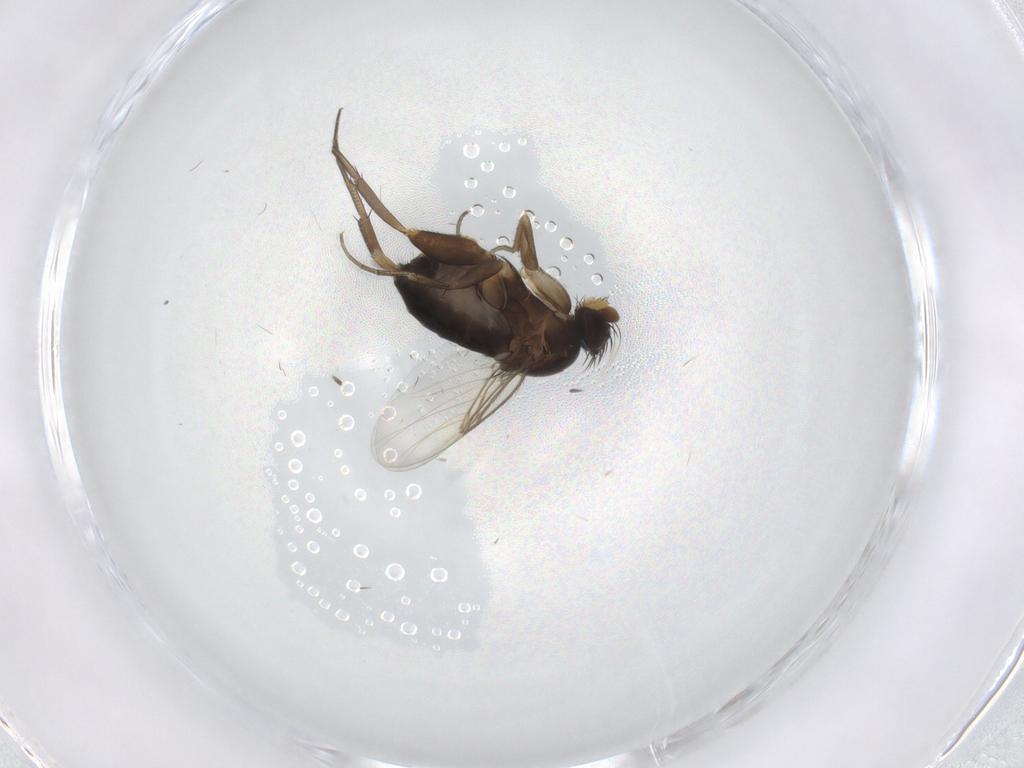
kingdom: Animalia
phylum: Arthropoda
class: Insecta
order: Diptera
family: Phoridae
